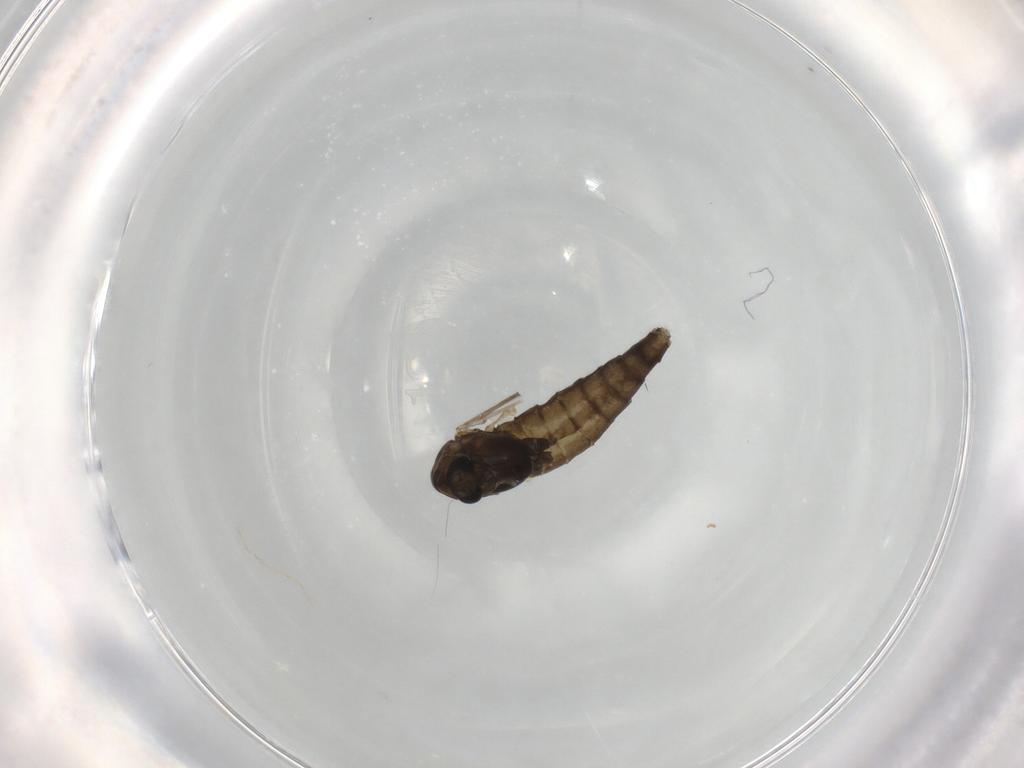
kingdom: Animalia
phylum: Arthropoda
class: Insecta
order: Diptera
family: Chironomidae
